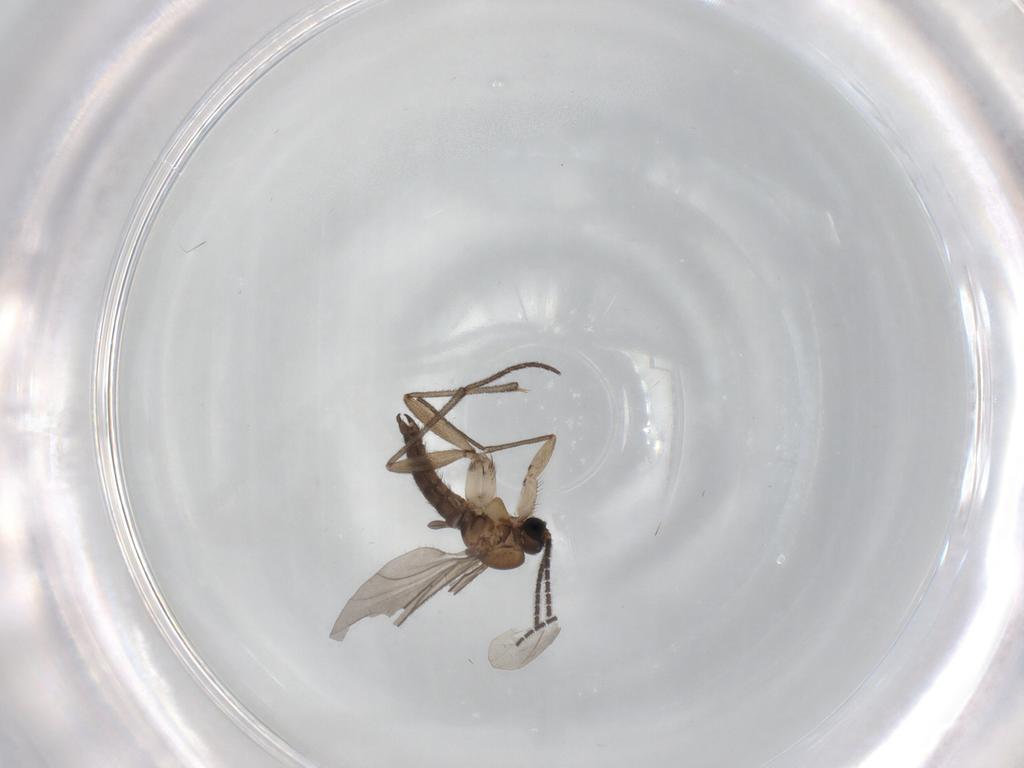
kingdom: Animalia
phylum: Arthropoda
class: Insecta
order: Diptera
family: Sciaridae
